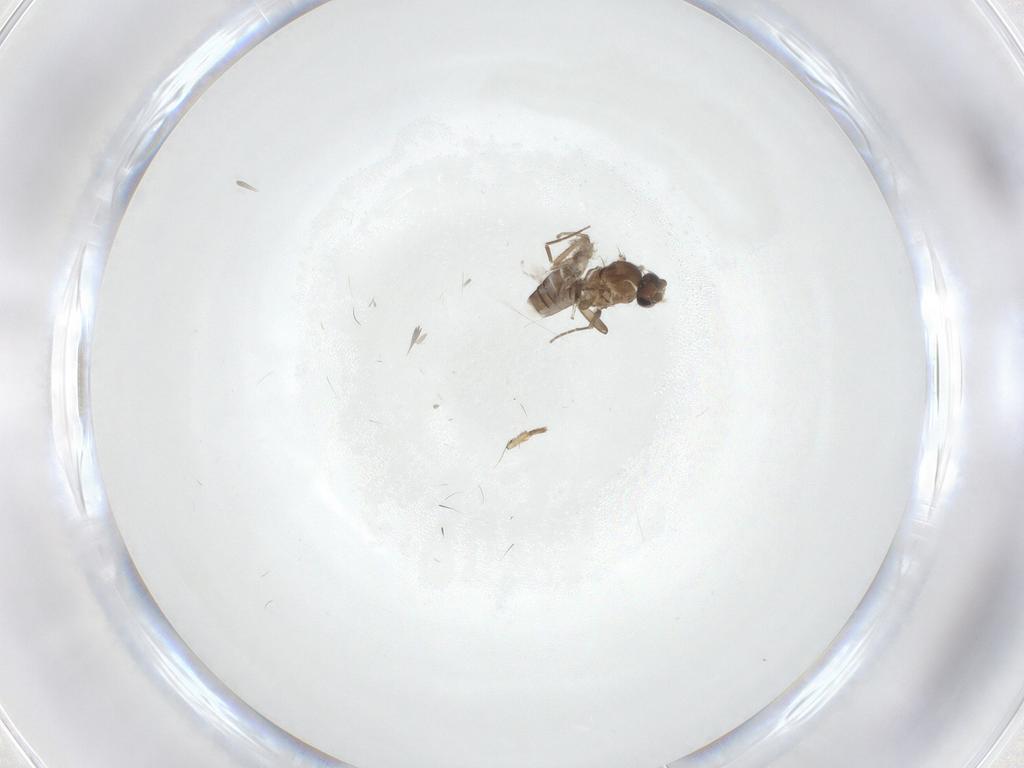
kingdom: Animalia
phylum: Arthropoda
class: Insecta
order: Diptera
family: Phoridae
